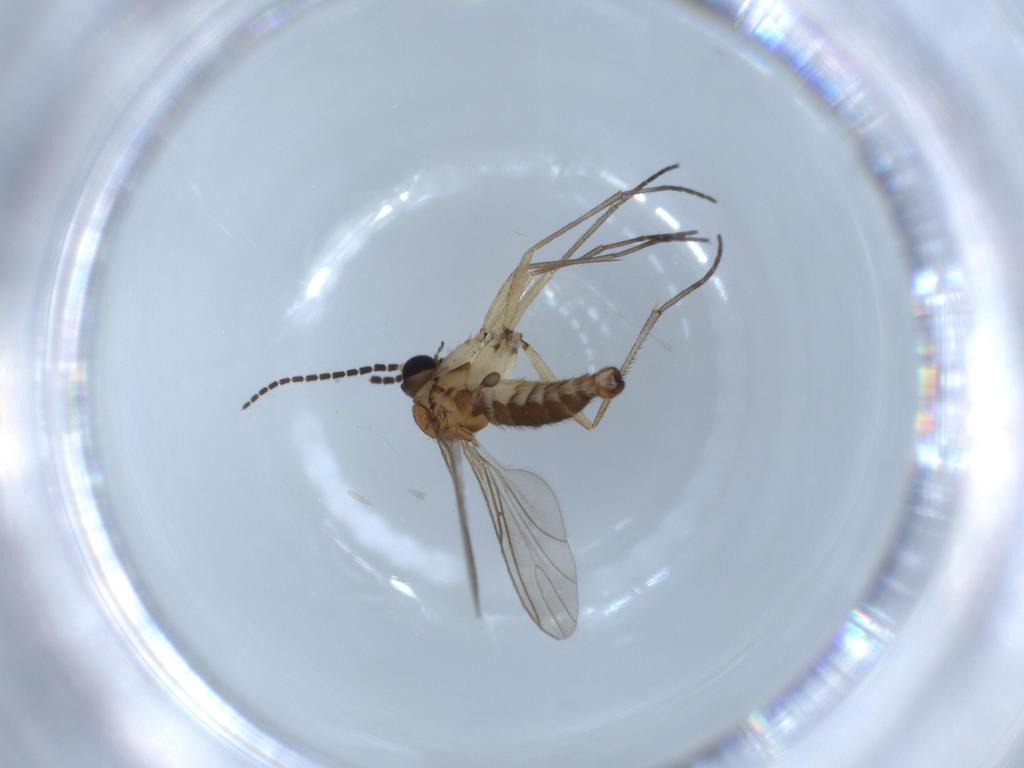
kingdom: Animalia
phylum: Arthropoda
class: Insecta
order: Diptera
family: Sciaridae
